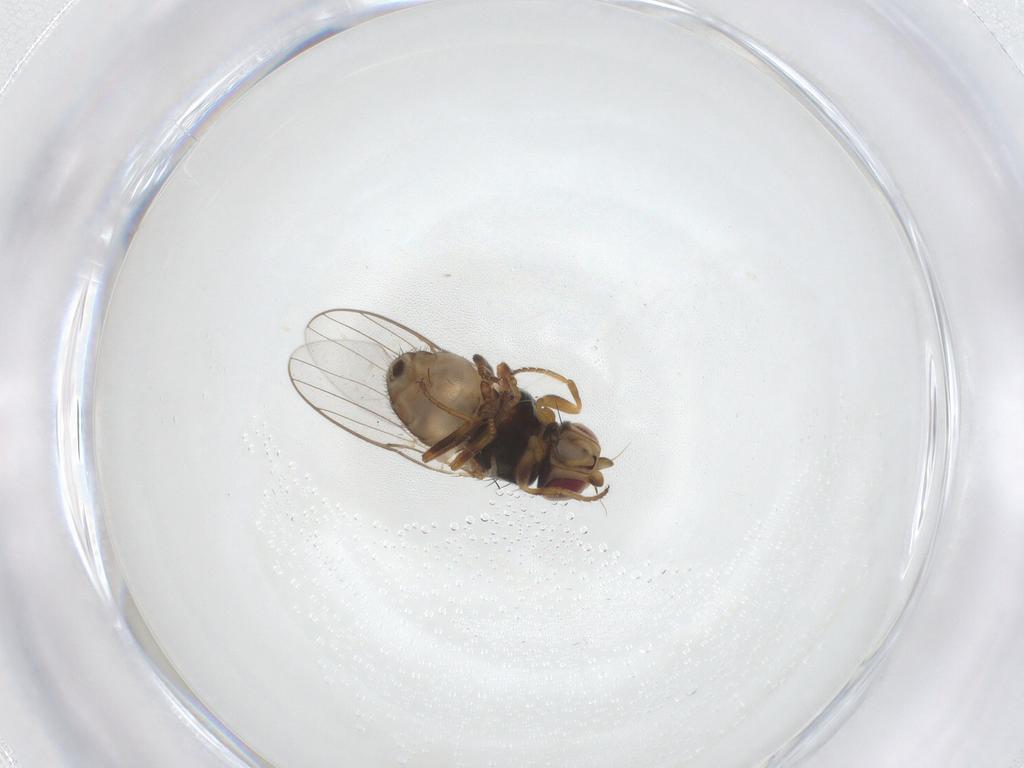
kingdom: Animalia
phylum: Arthropoda
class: Insecta
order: Diptera
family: Chloropidae
